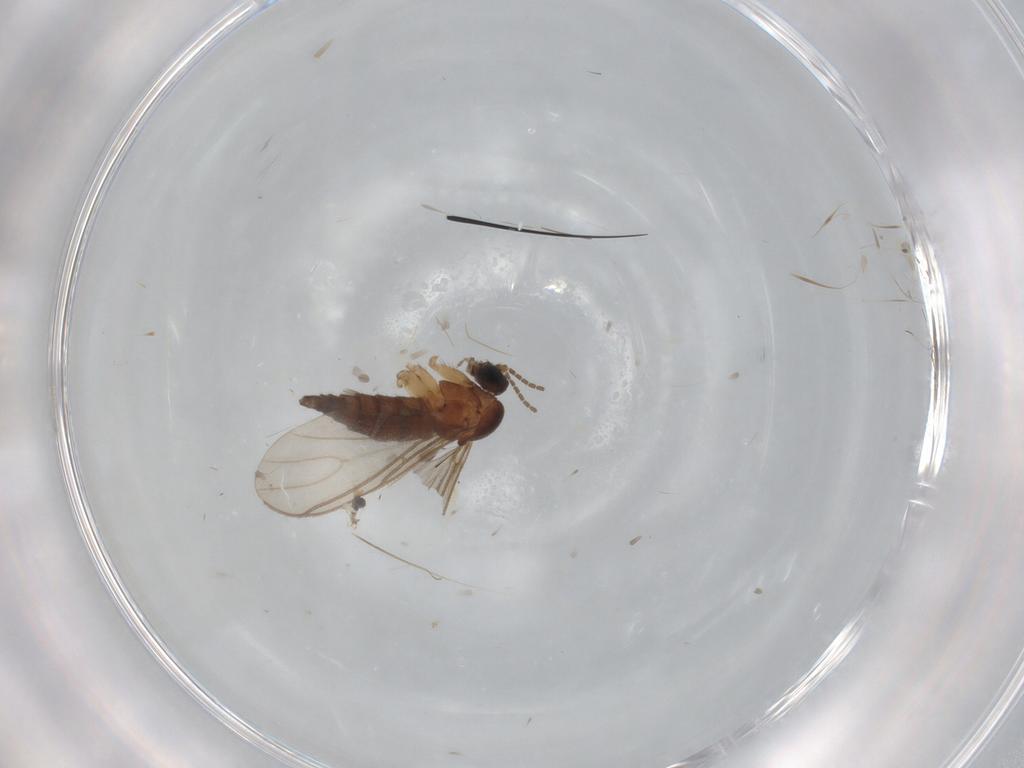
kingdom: Animalia
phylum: Arthropoda
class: Insecta
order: Diptera
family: Sciaridae
